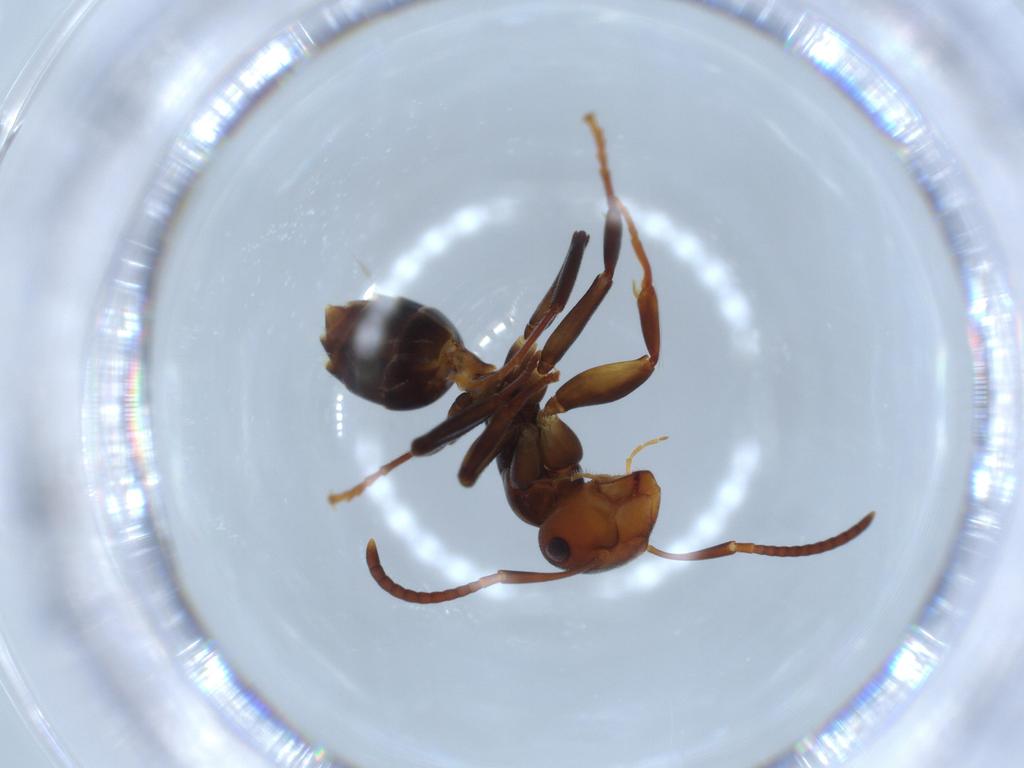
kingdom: Animalia
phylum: Arthropoda
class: Insecta
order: Hymenoptera
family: Formicidae
